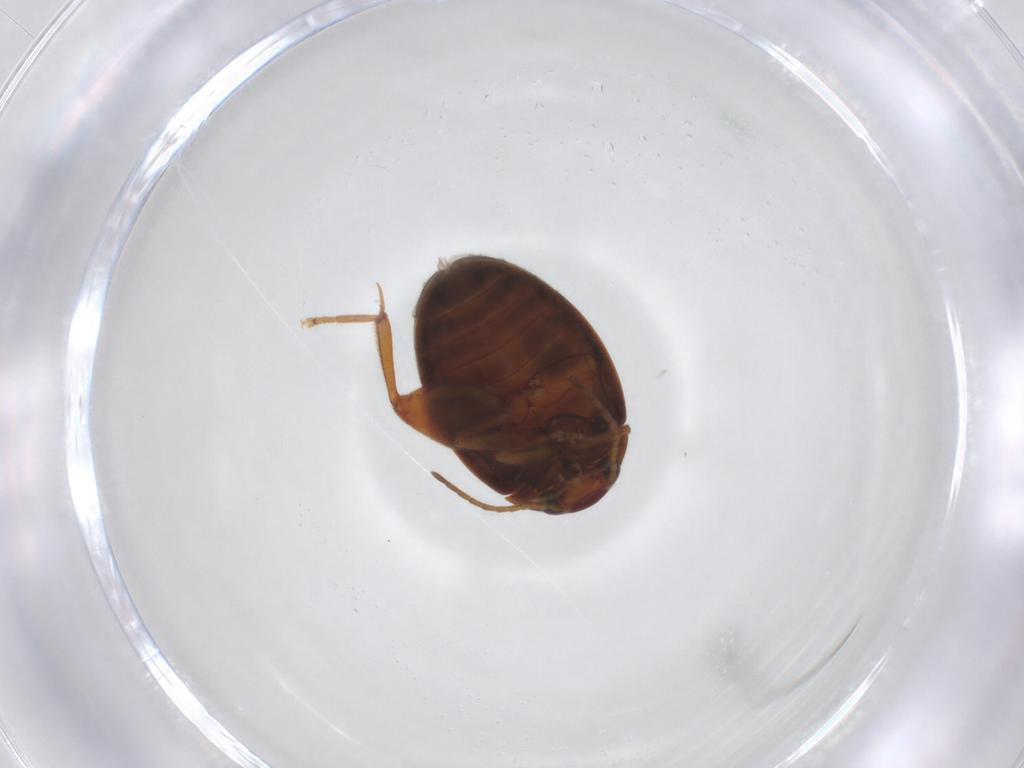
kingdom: Animalia
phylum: Arthropoda
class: Insecta
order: Coleoptera
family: Scirtidae
